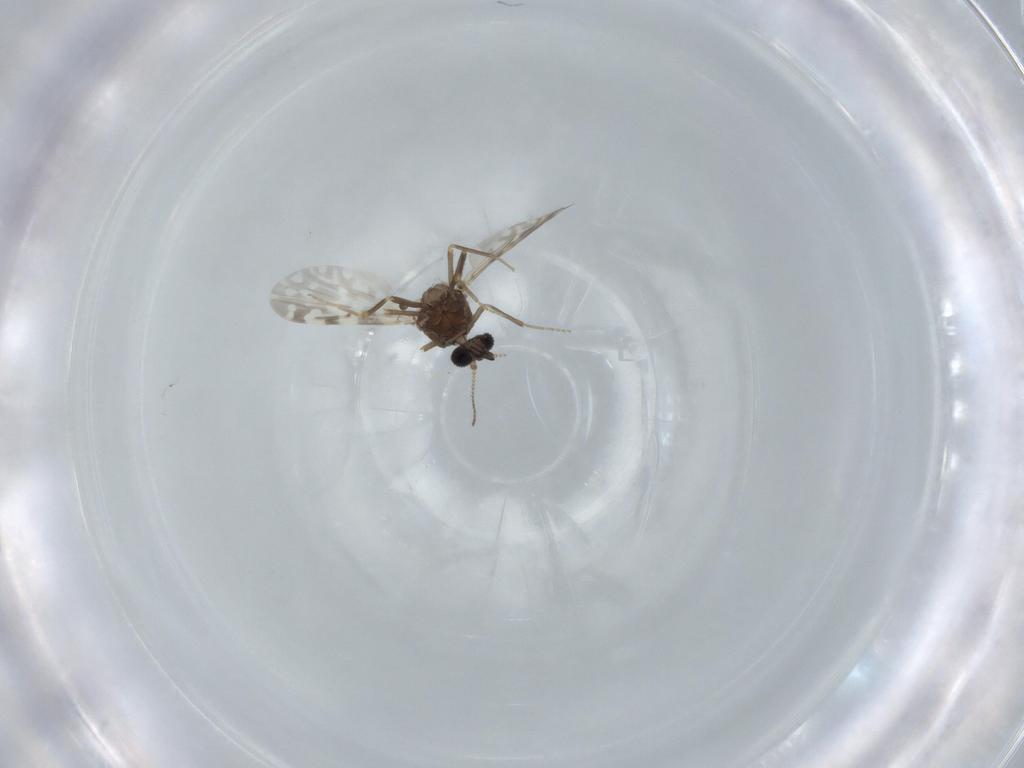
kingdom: Animalia
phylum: Arthropoda
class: Insecta
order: Diptera
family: Ceratopogonidae
